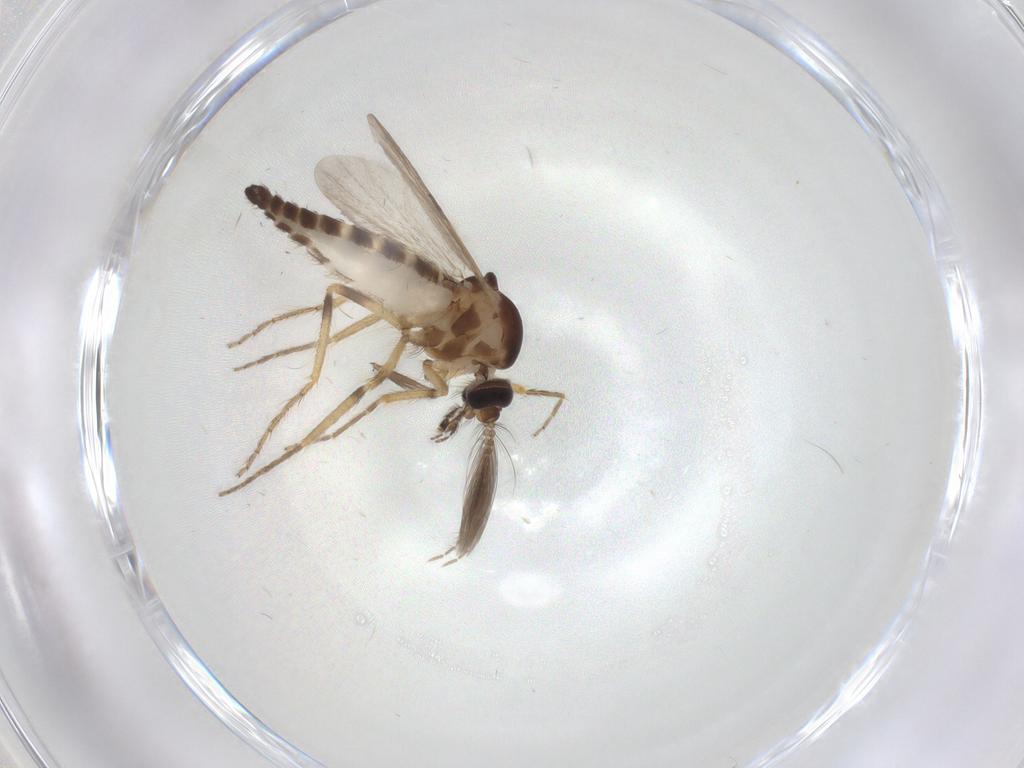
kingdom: Animalia
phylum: Arthropoda
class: Insecta
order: Diptera
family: Ceratopogonidae
